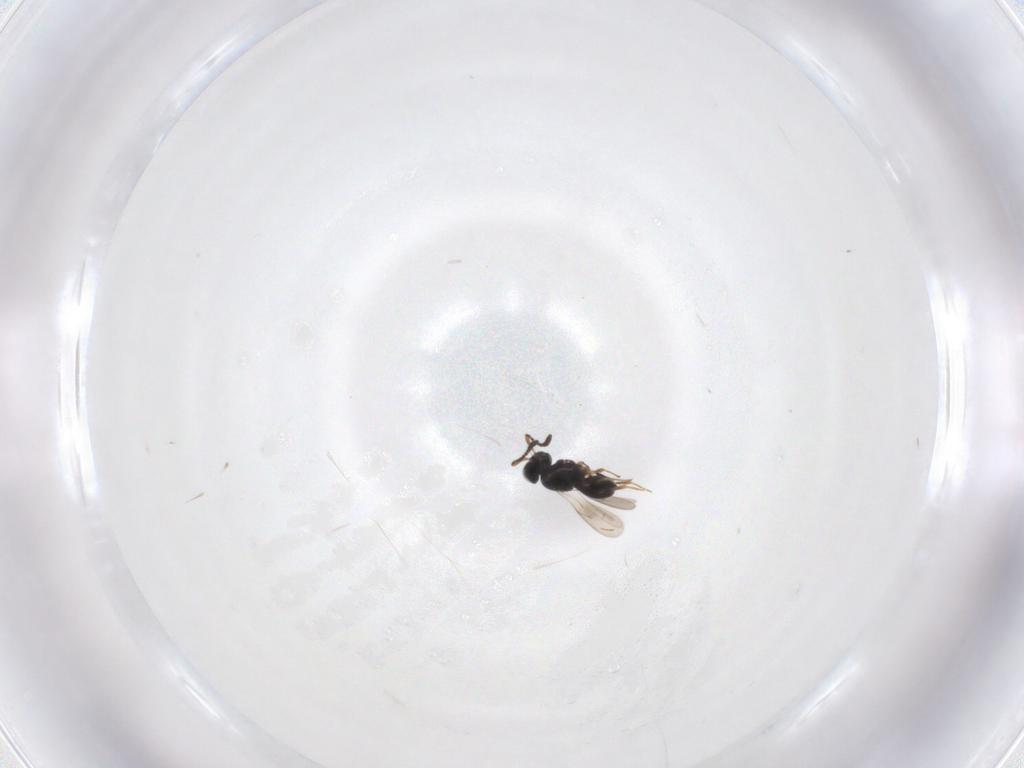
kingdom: Animalia
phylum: Arthropoda
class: Insecta
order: Hymenoptera
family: Scelionidae
